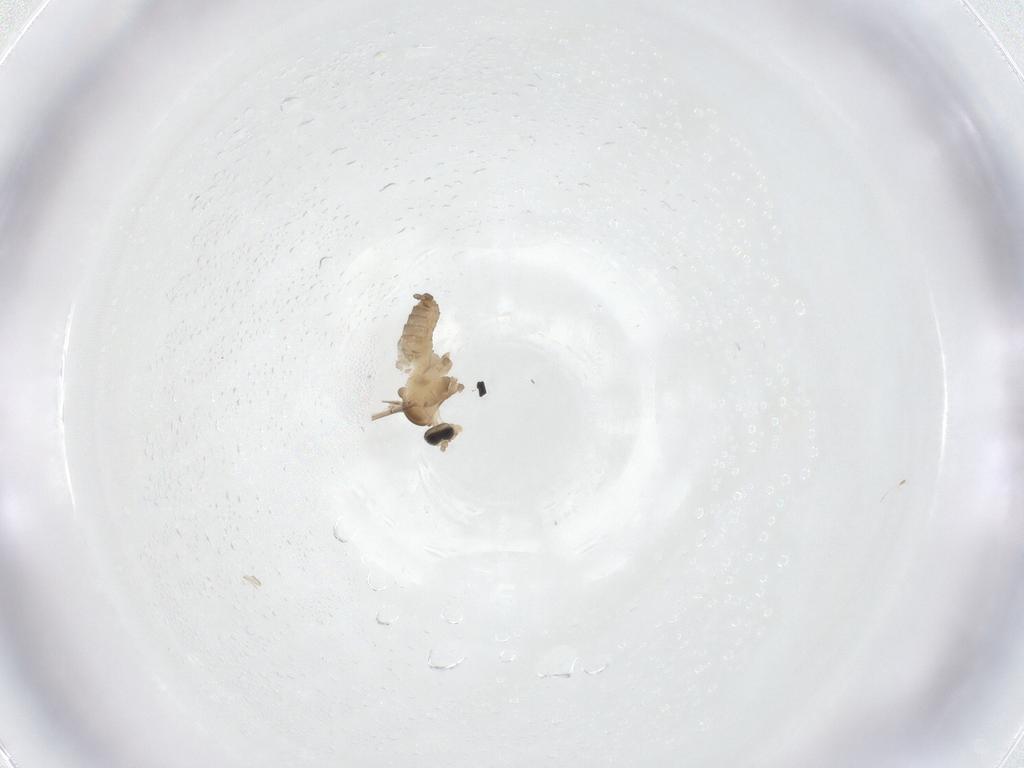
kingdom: Animalia
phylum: Arthropoda
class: Insecta
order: Diptera
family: Cecidomyiidae
